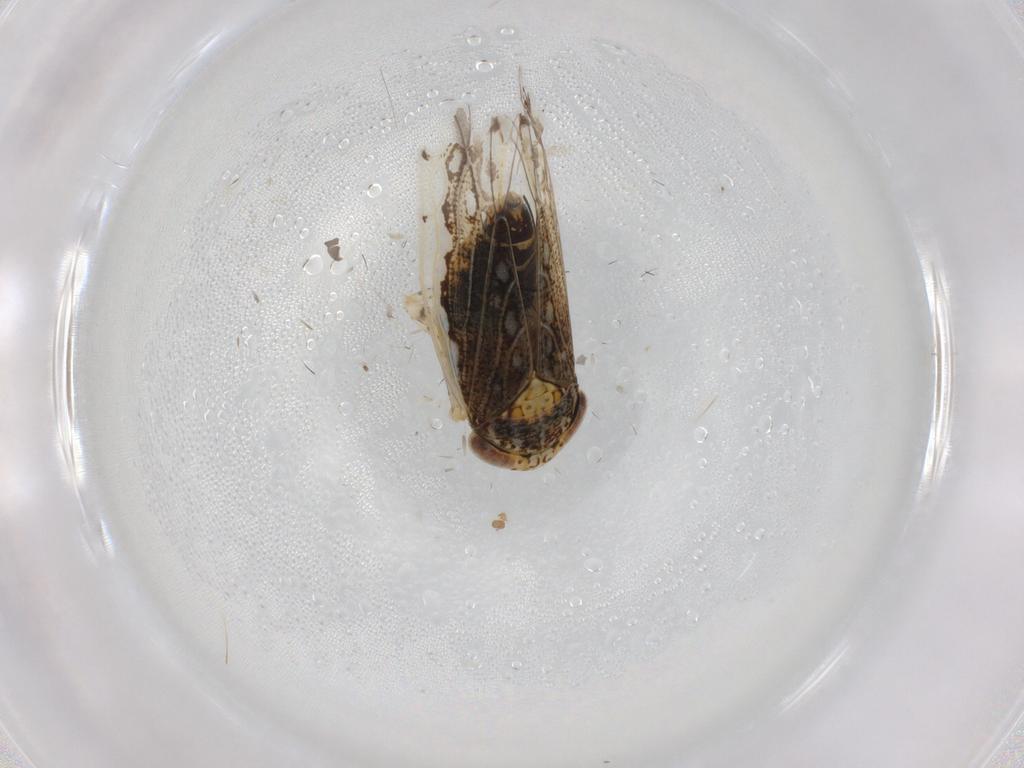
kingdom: Animalia
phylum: Arthropoda
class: Insecta
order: Hemiptera
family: Cicadellidae
